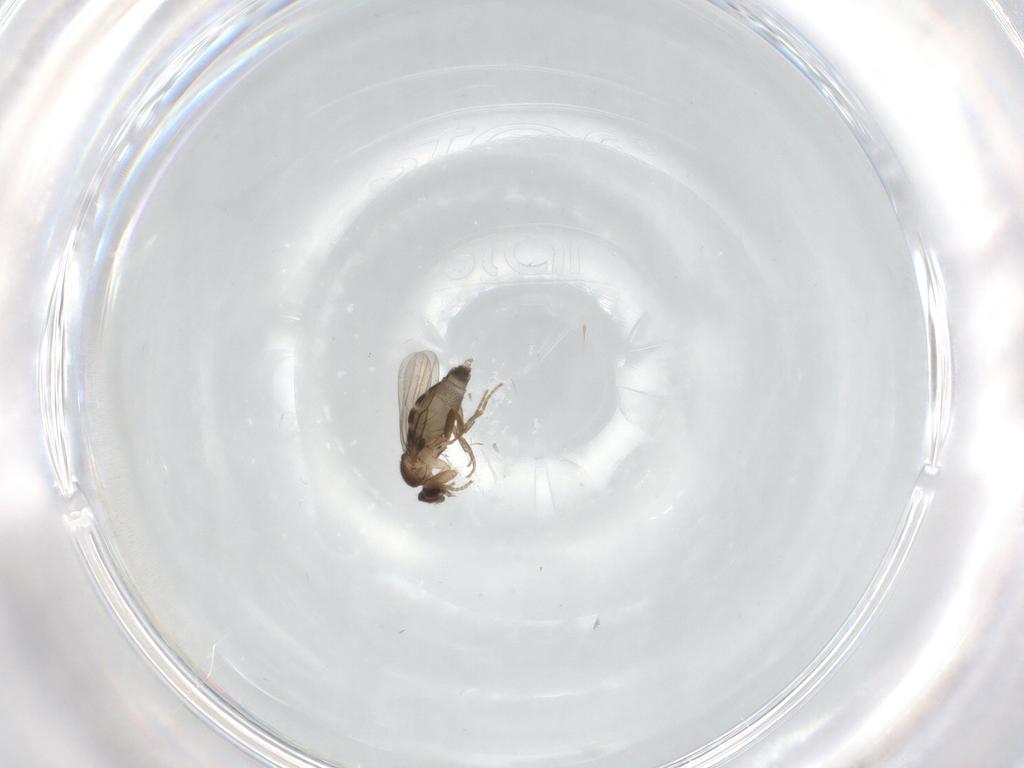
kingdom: Animalia
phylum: Arthropoda
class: Insecta
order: Diptera
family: Phoridae
